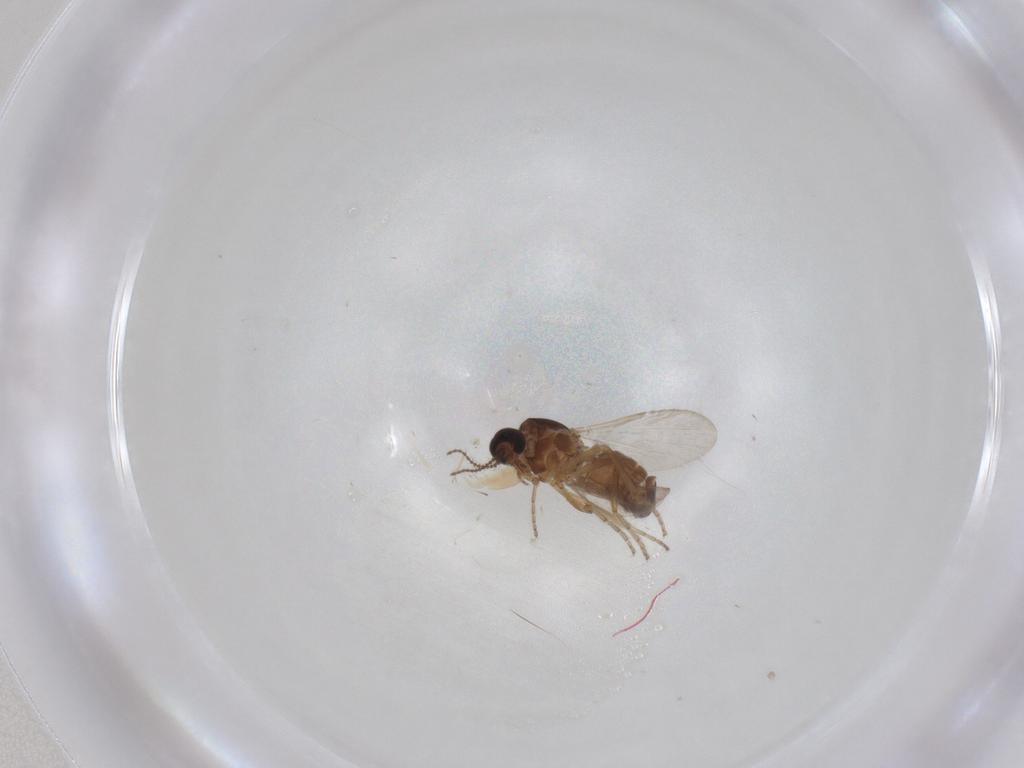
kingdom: Animalia
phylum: Arthropoda
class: Insecta
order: Diptera
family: Ceratopogonidae
